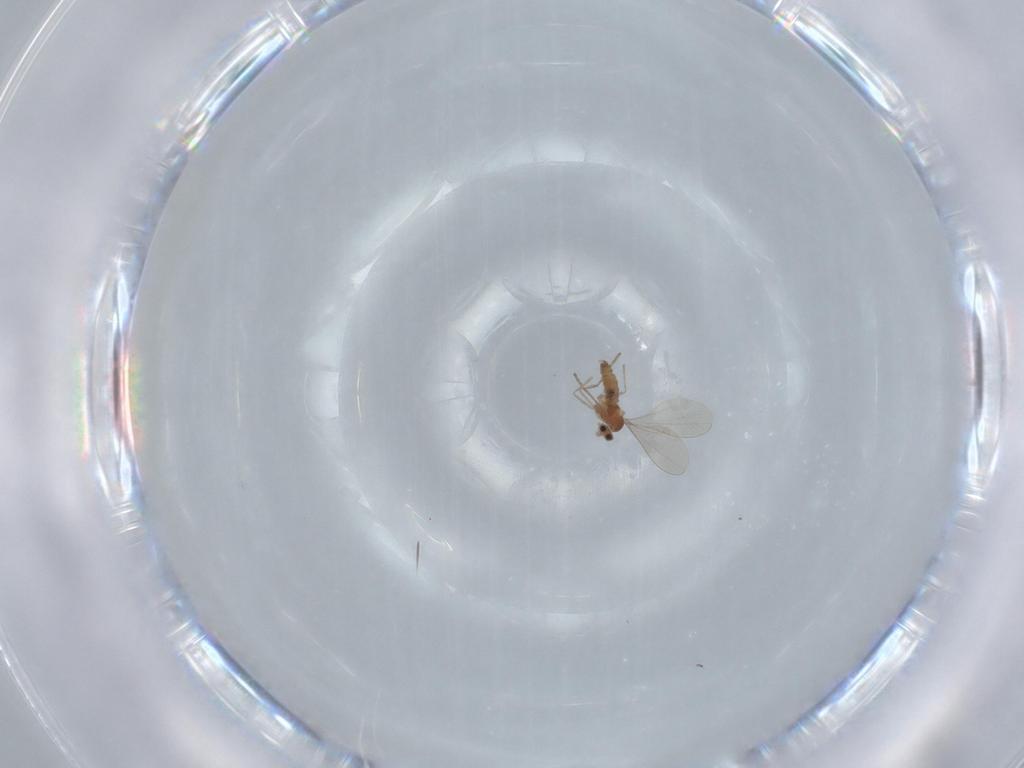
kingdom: Animalia
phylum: Arthropoda
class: Insecta
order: Diptera
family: Cecidomyiidae
